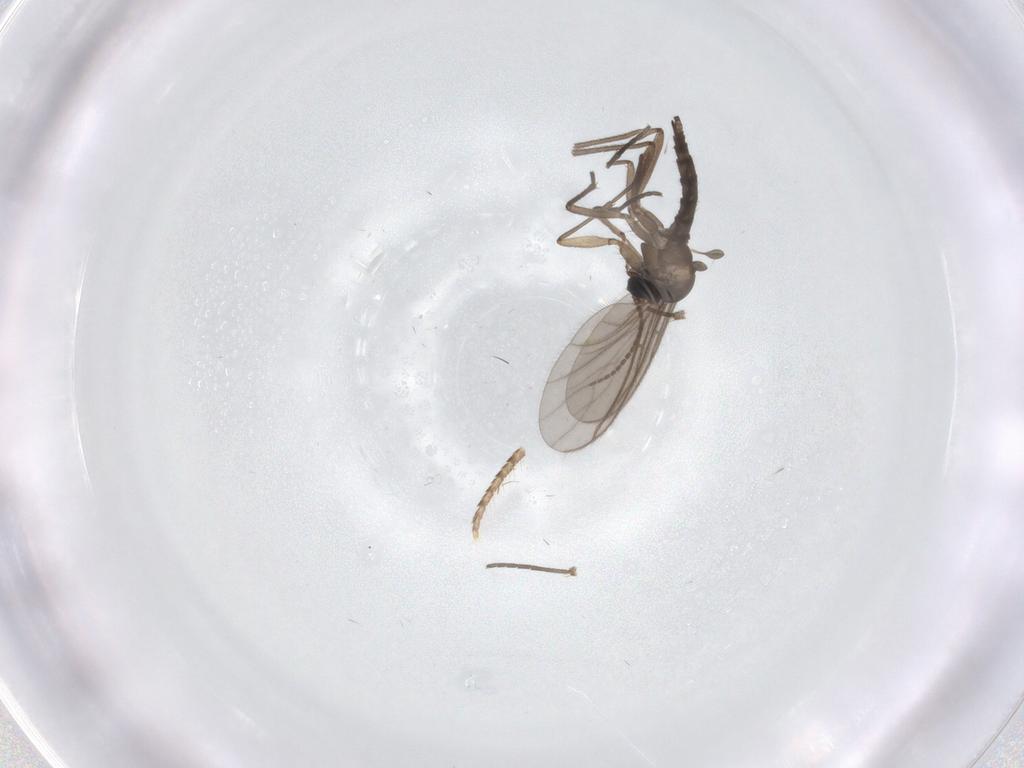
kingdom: Animalia
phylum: Arthropoda
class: Insecta
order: Diptera
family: Sciaridae
